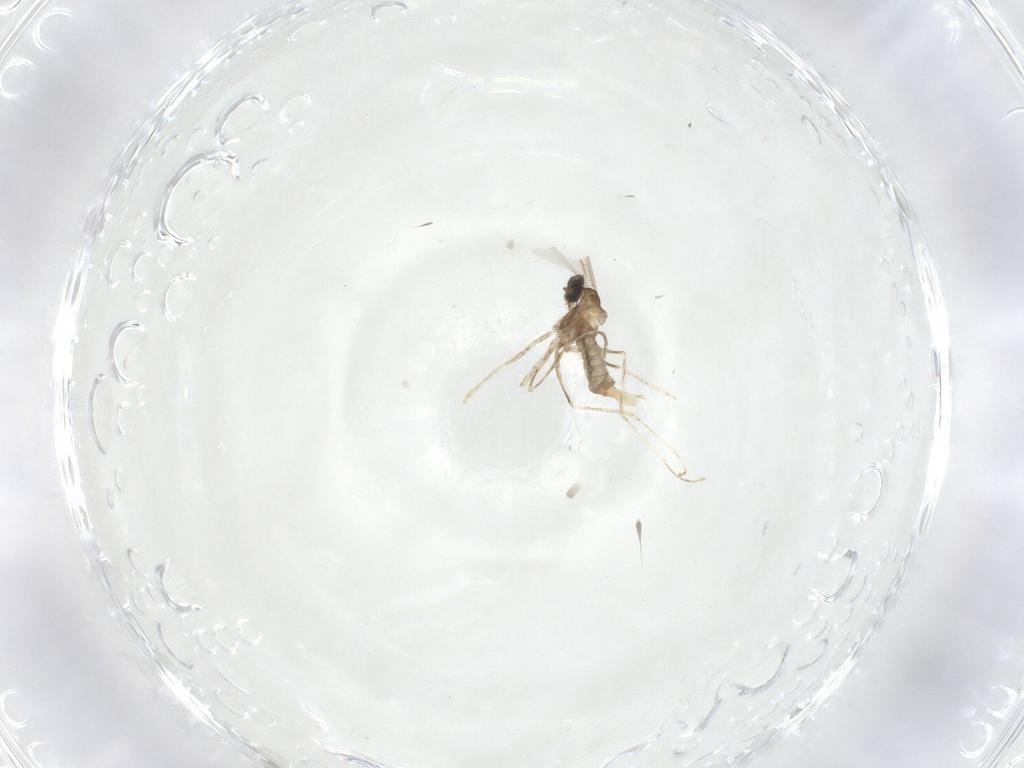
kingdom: Animalia
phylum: Arthropoda
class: Insecta
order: Diptera
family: Cecidomyiidae
